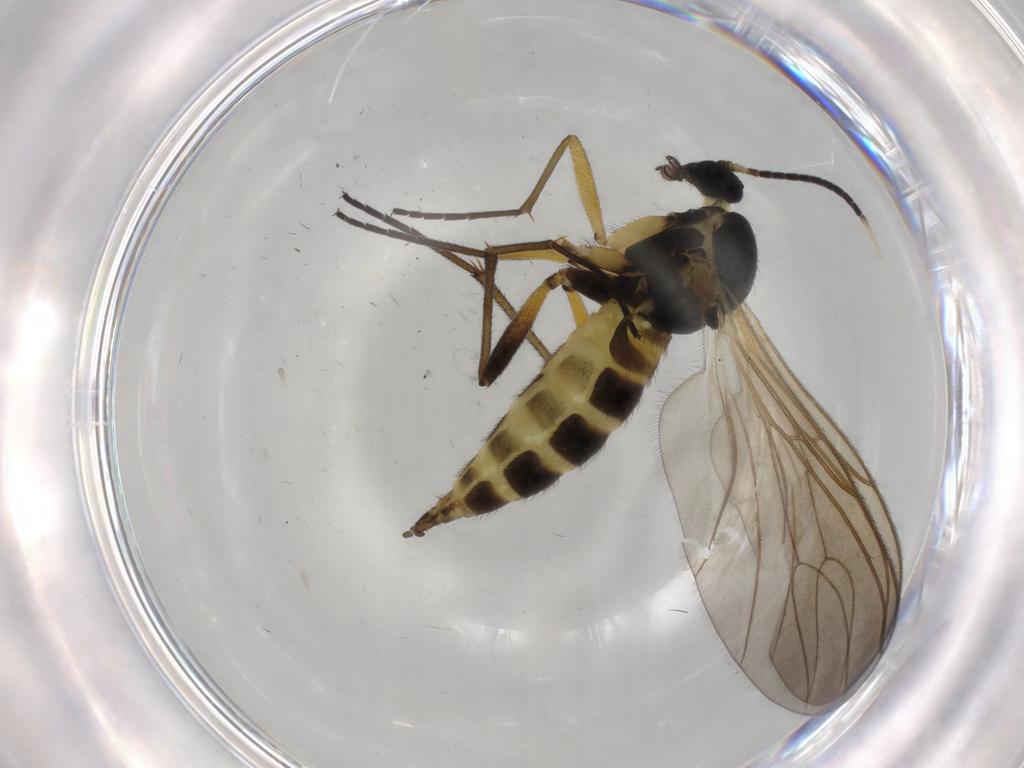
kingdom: Animalia
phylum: Arthropoda
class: Insecta
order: Diptera
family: Sciaridae
